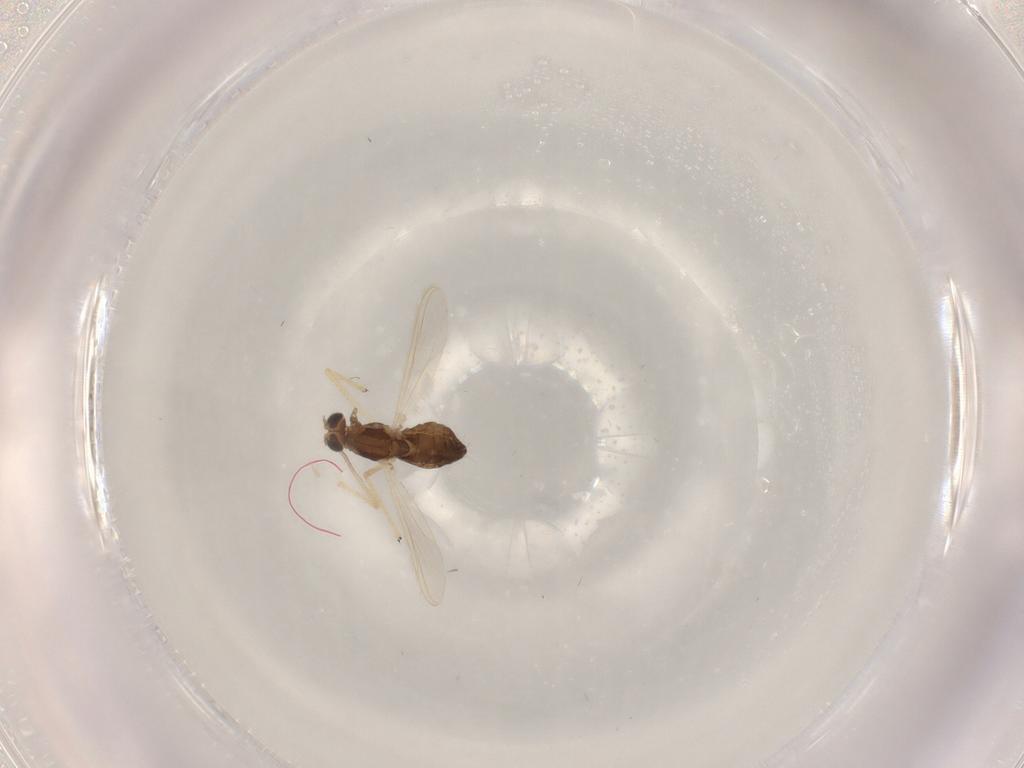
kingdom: Animalia
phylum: Arthropoda
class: Insecta
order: Diptera
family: Chironomidae
